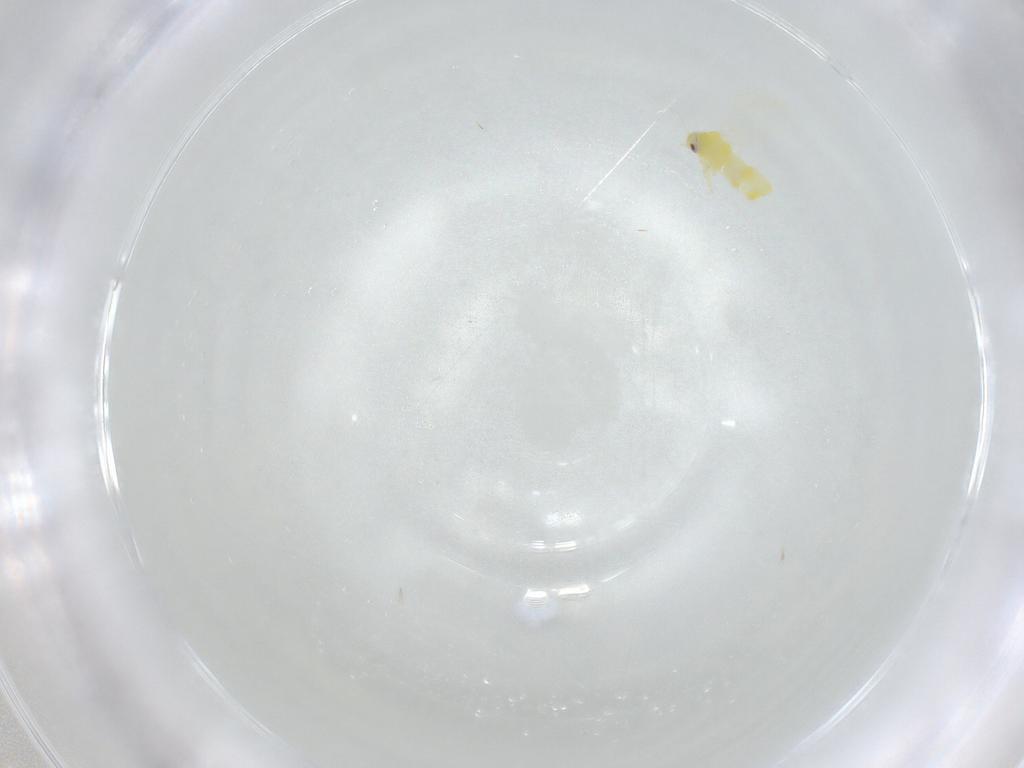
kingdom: Animalia
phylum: Arthropoda
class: Insecta
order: Hemiptera
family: Aleyrodidae
